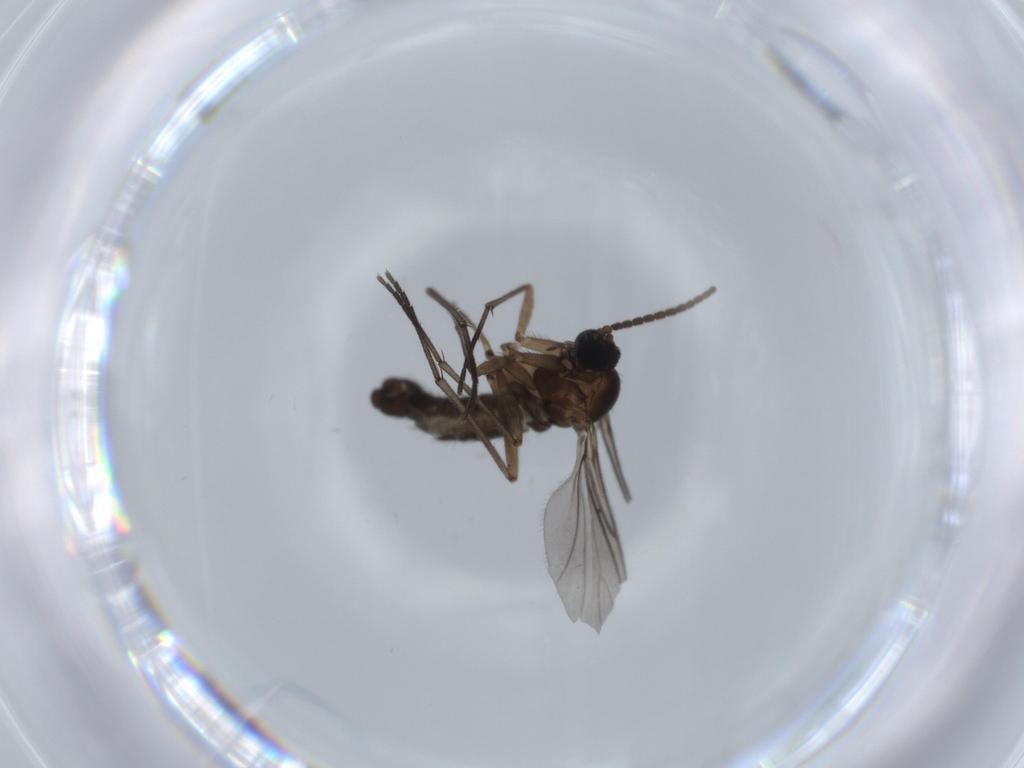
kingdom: Animalia
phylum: Arthropoda
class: Insecta
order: Diptera
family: Sciaridae
